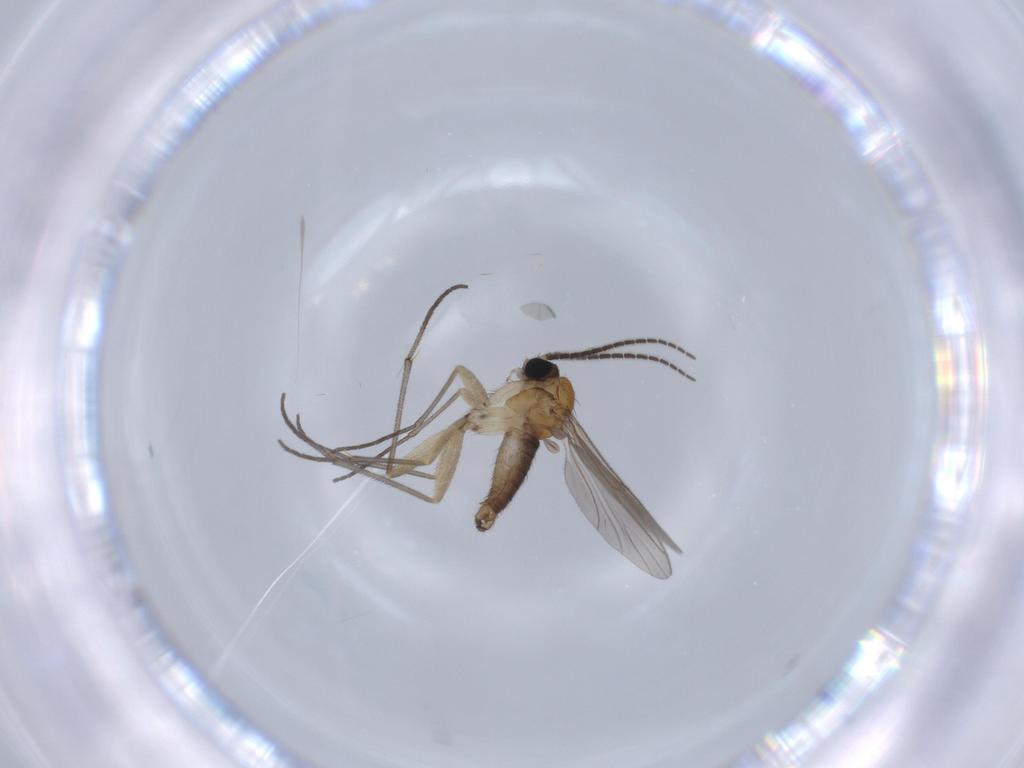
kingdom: Animalia
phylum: Arthropoda
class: Insecta
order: Diptera
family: Sciaridae
